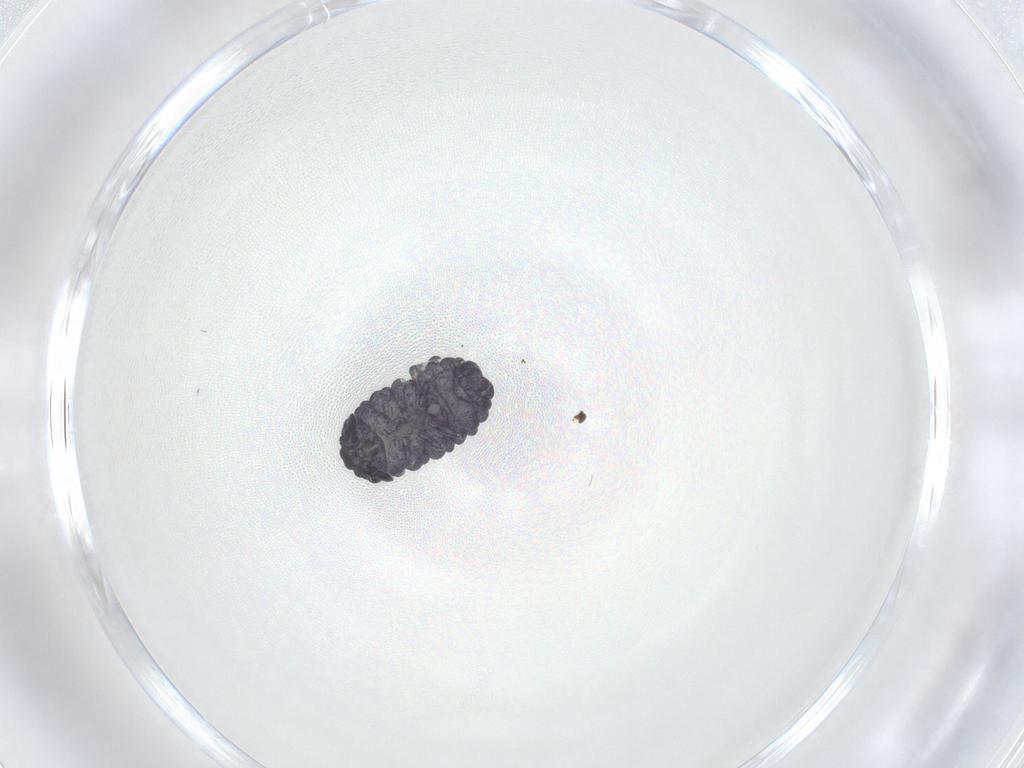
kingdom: Animalia
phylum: Arthropoda
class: Collembola
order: Poduromorpha
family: Neanuridae
